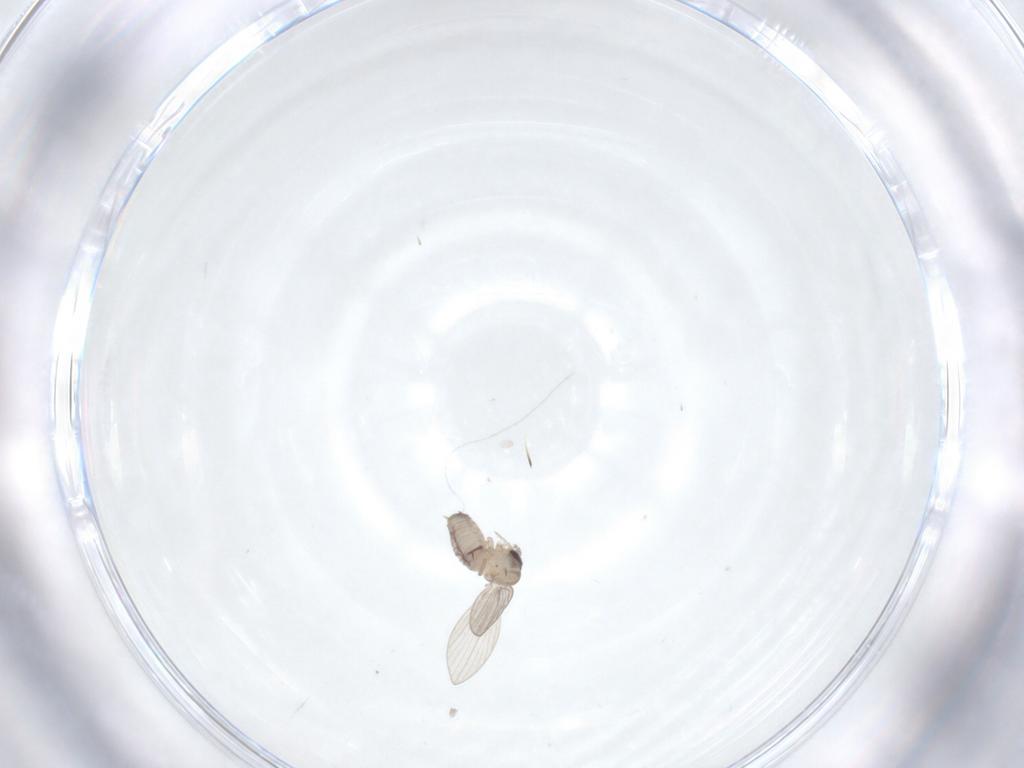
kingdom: Animalia
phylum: Arthropoda
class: Insecta
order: Diptera
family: Psychodidae
